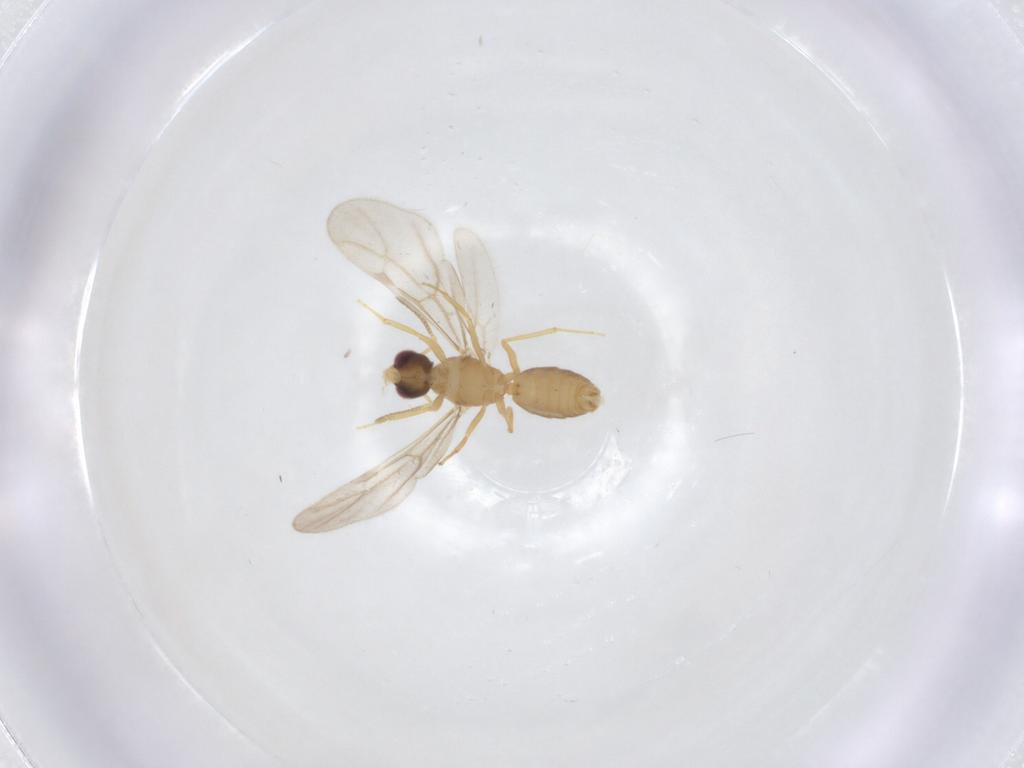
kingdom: Animalia
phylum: Arthropoda
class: Insecta
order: Hymenoptera
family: Formicidae
